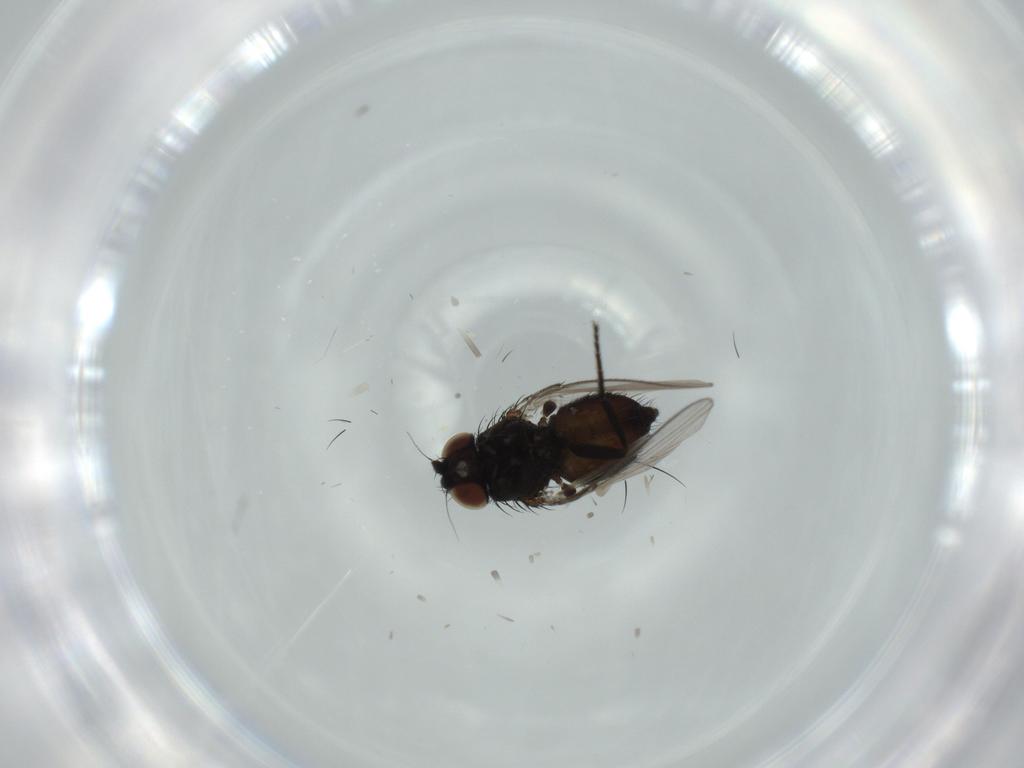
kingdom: Animalia
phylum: Arthropoda
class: Insecta
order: Diptera
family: Milichiidae
